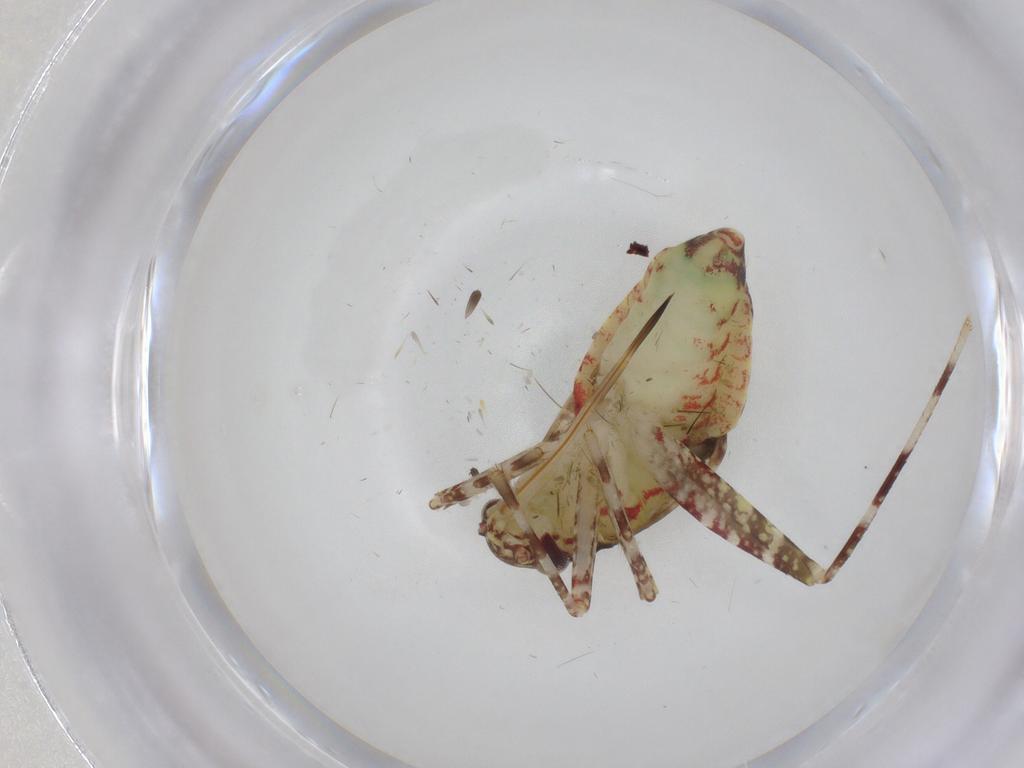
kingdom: Animalia
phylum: Arthropoda
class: Insecta
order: Hemiptera
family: Miridae
